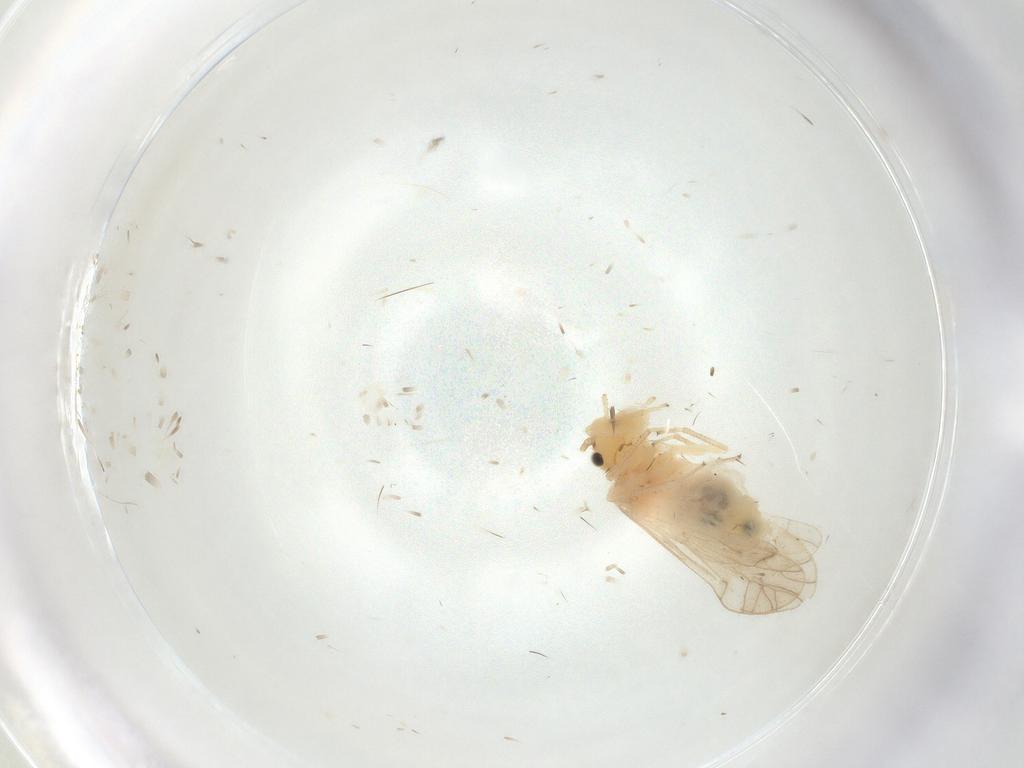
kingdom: Animalia
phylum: Arthropoda
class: Insecta
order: Psocodea
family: Caeciliusidae
